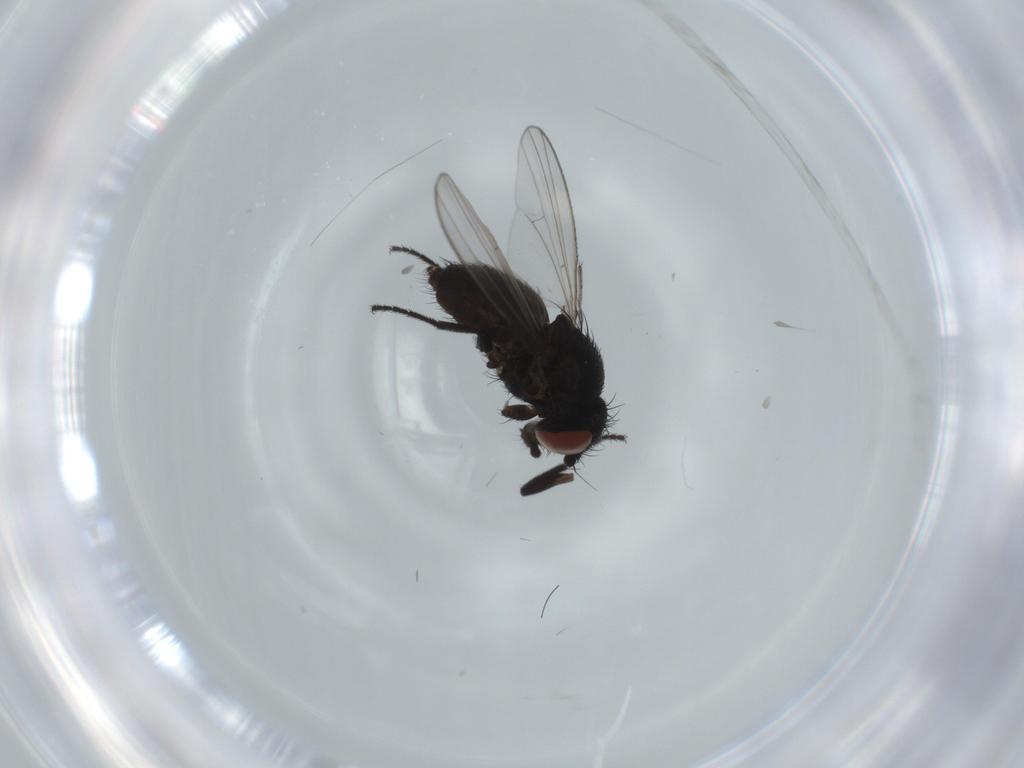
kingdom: Animalia
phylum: Arthropoda
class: Insecta
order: Diptera
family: Milichiidae
